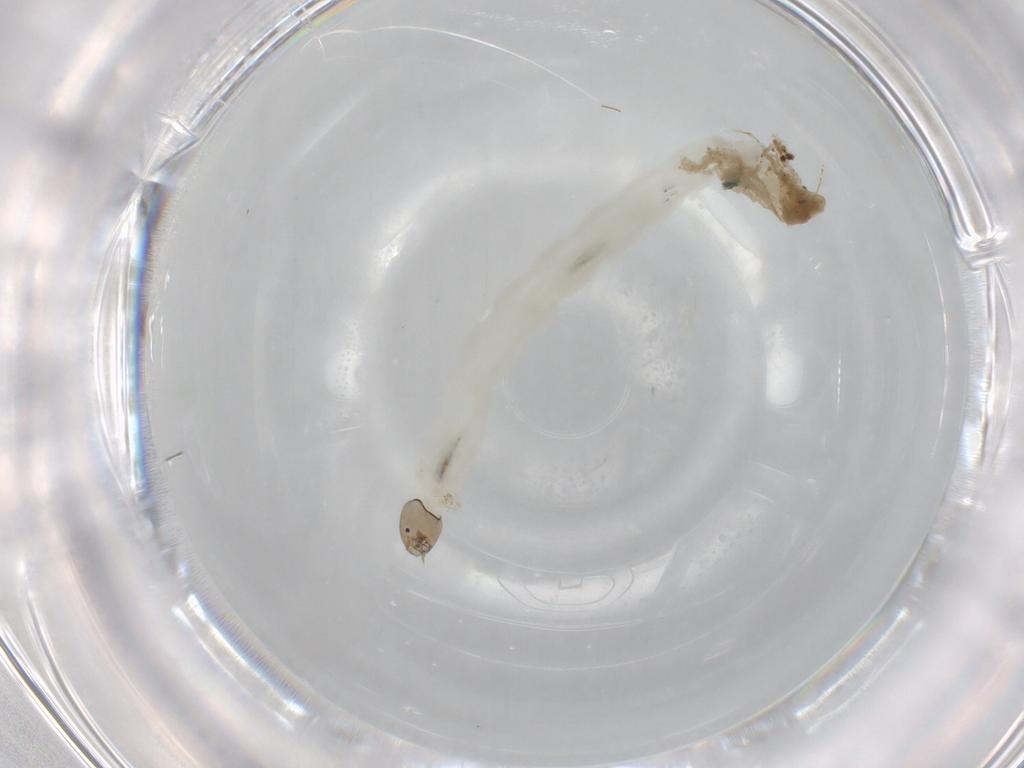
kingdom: Animalia
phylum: Arthropoda
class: Insecta
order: Diptera
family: Chironomidae
